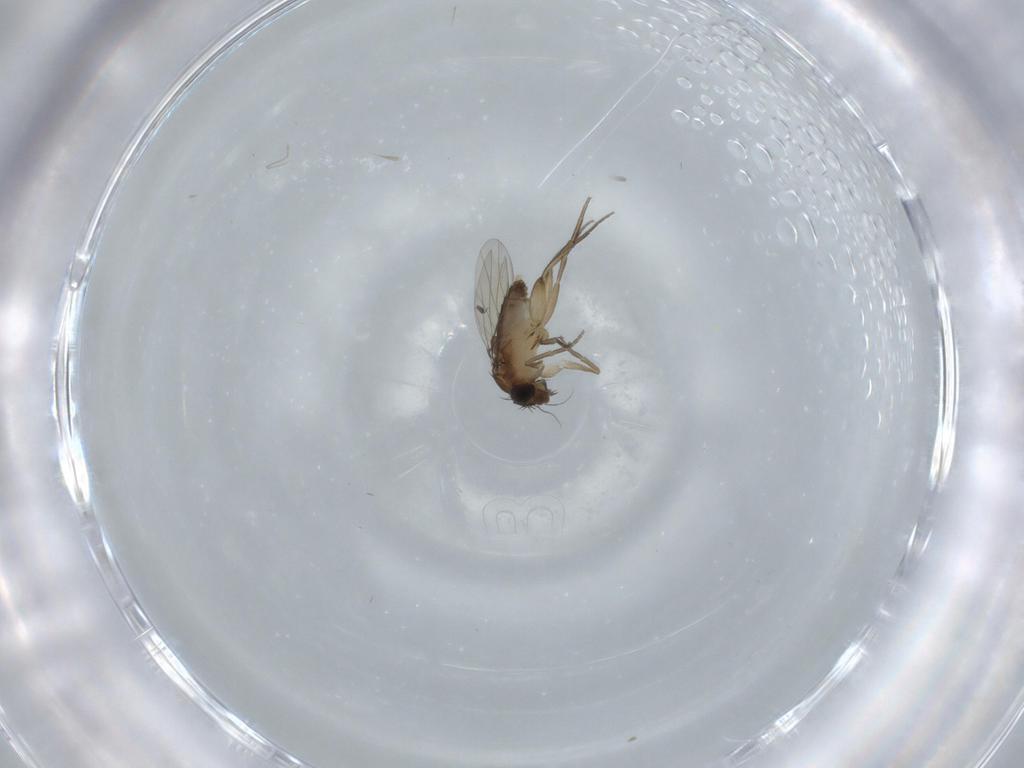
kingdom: Animalia
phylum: Arthropoda
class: Insecta
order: Diptera
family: Phoridae
